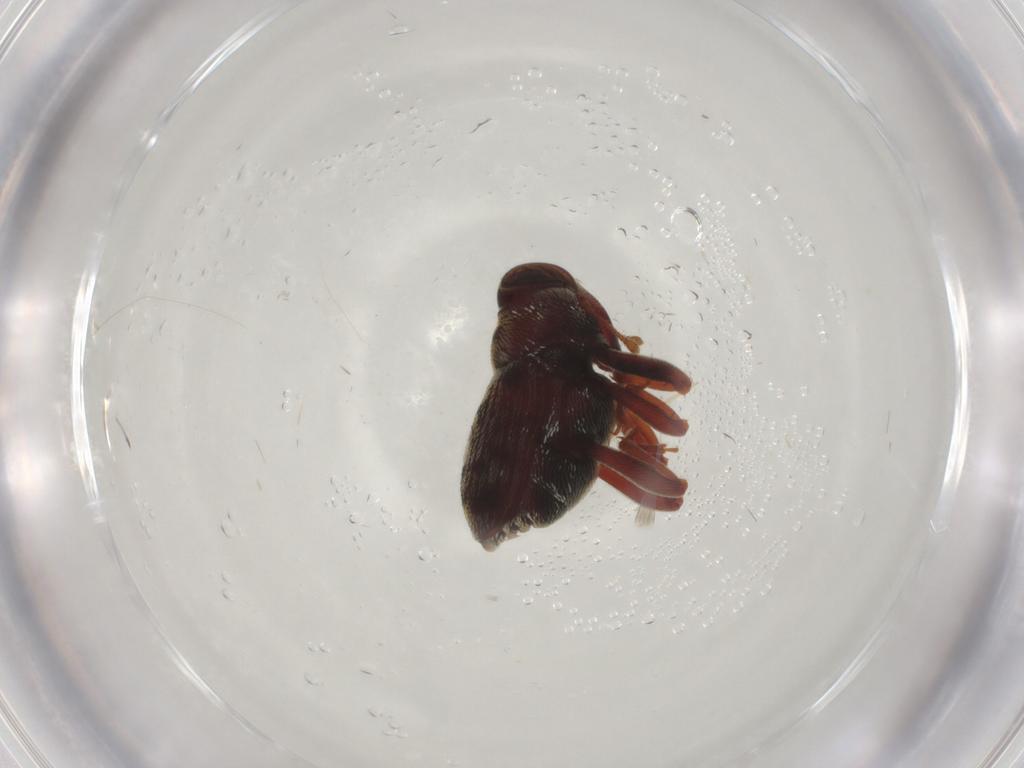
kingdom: Animalia
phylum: Arthropoda
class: Insecta
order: Coleoptera
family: Curculionidae
